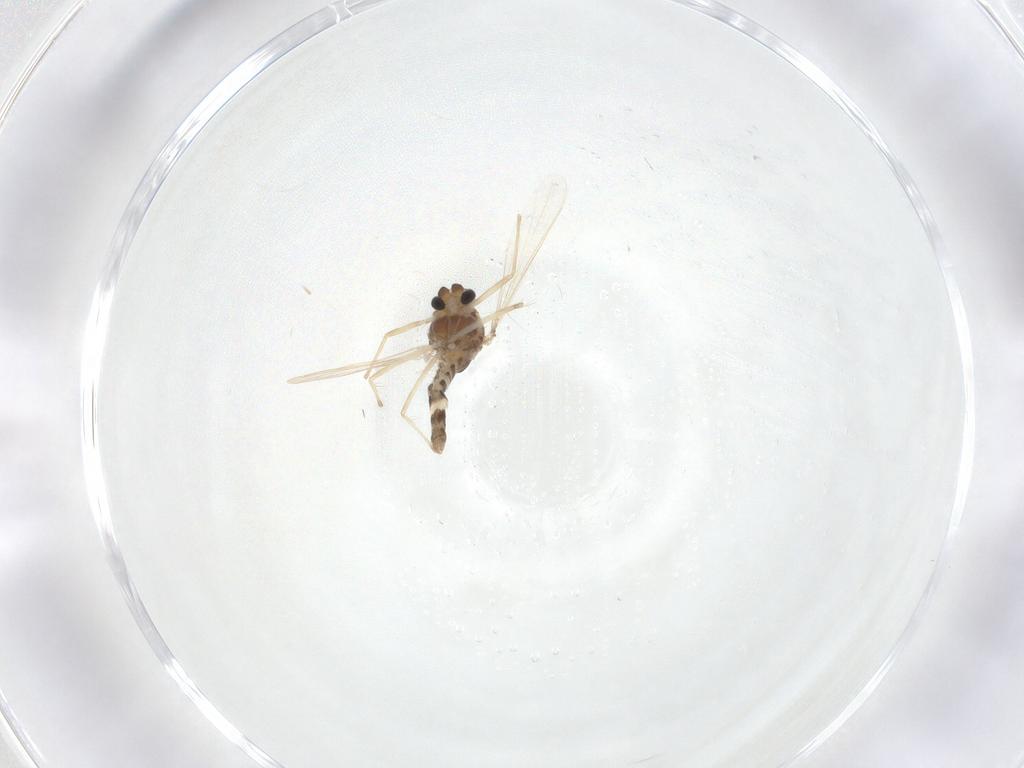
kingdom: Animalia
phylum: Arthropoda
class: Insecta
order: Diptera
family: Chironomidae
